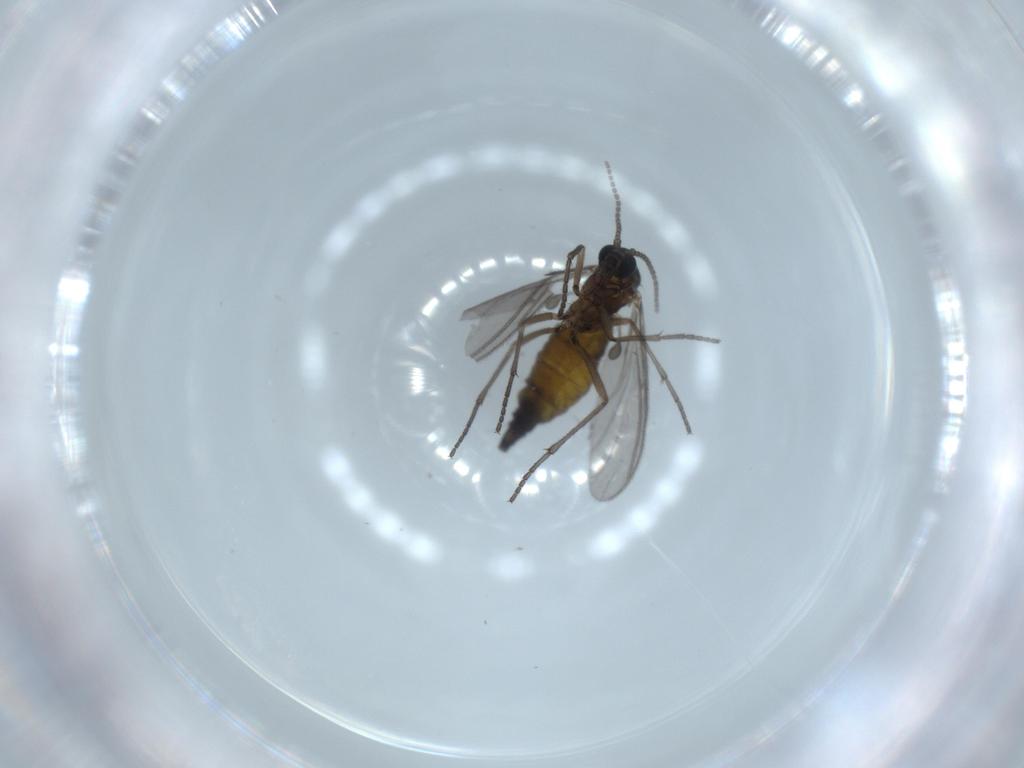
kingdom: Animalia
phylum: Arthropoda
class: Insecta
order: Diptera
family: Sciaridae
